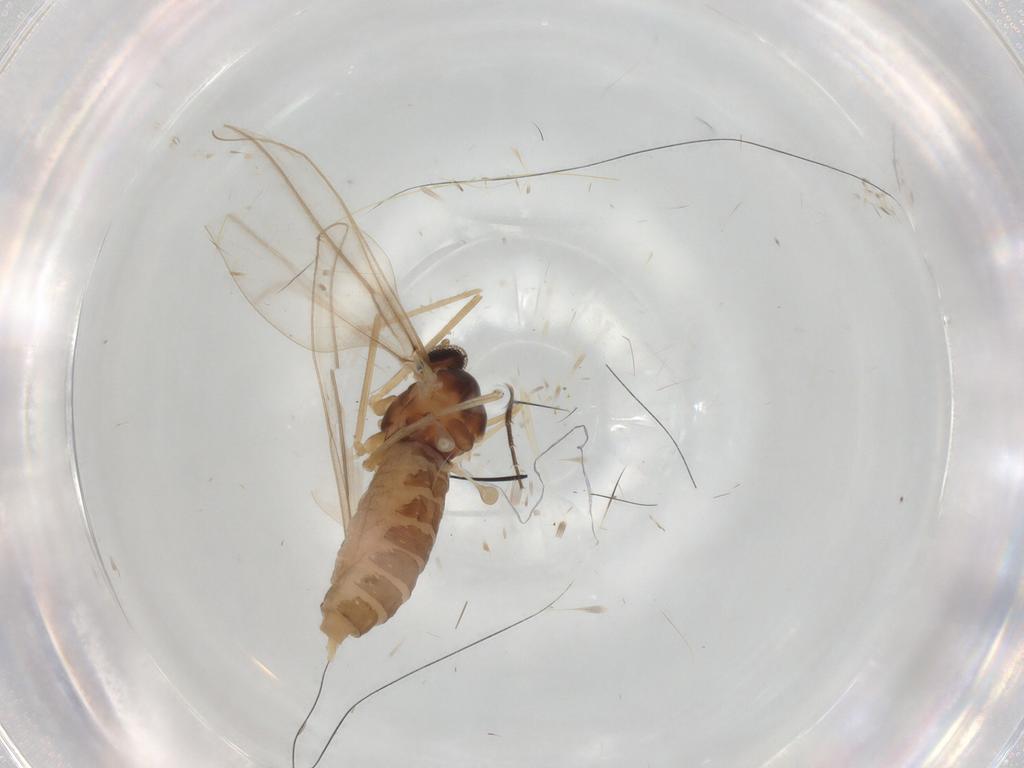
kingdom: Animalia
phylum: Arthropoda
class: Insecta
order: Diptera
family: Cecidomyiidae
